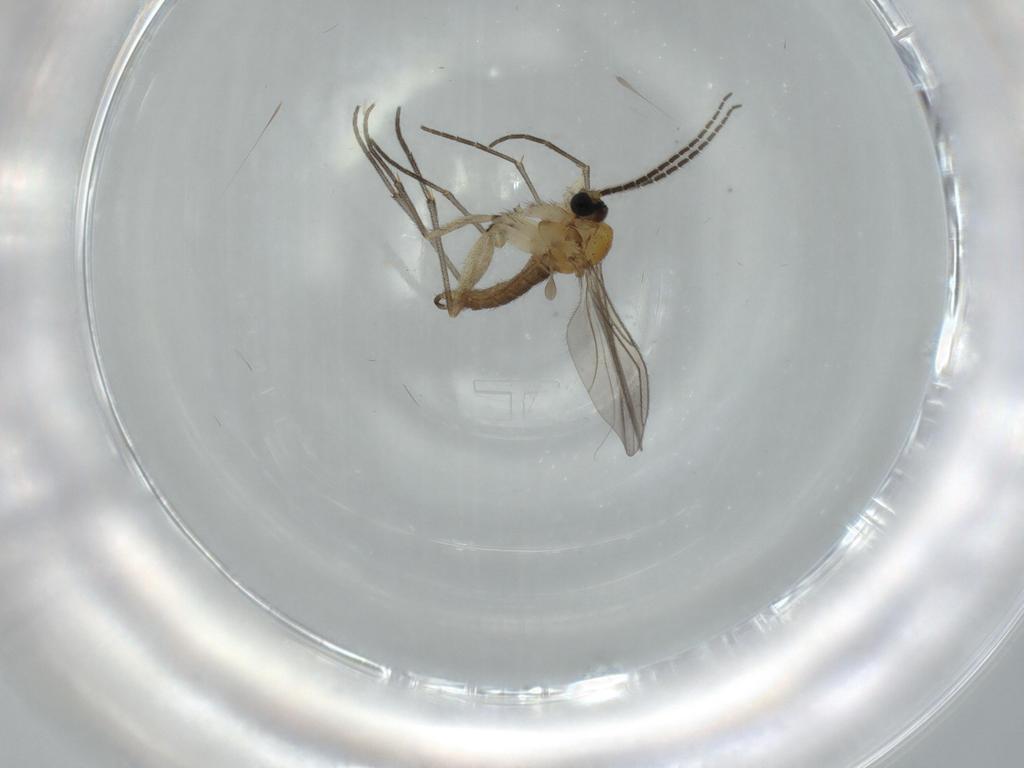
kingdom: Animalia
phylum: Arthropoda
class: Insecta
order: Diptera
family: Sciaridae
